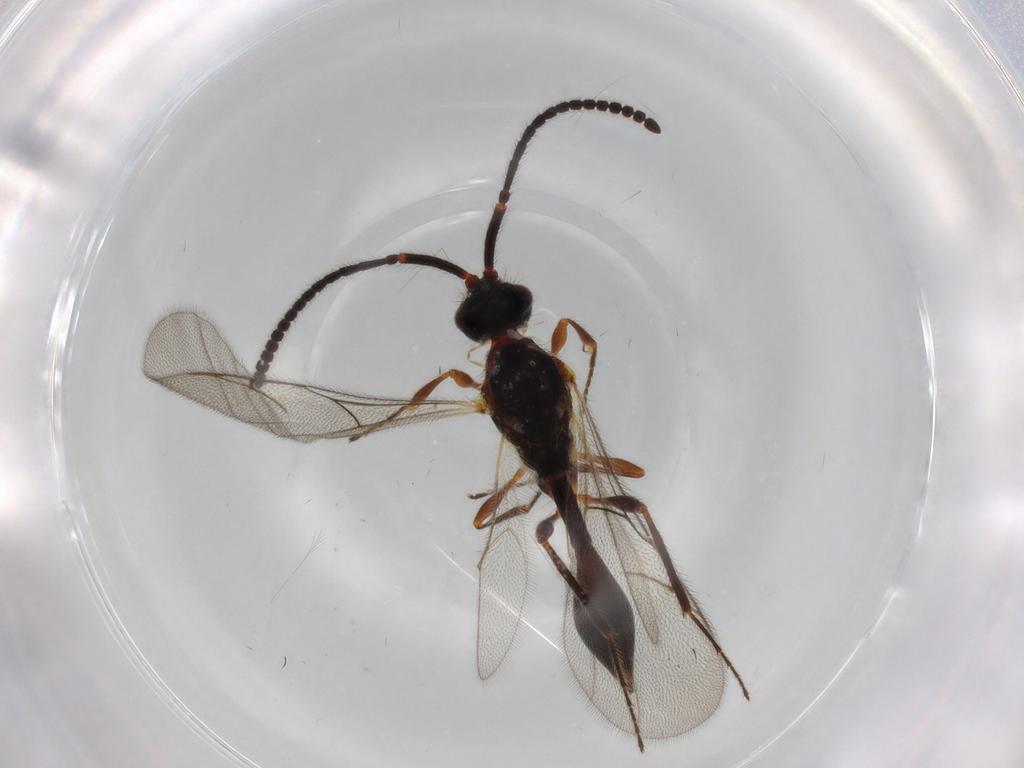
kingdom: Animalia
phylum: Arthropoda
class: Insecta
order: Hymenoptera
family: Diapriidae
